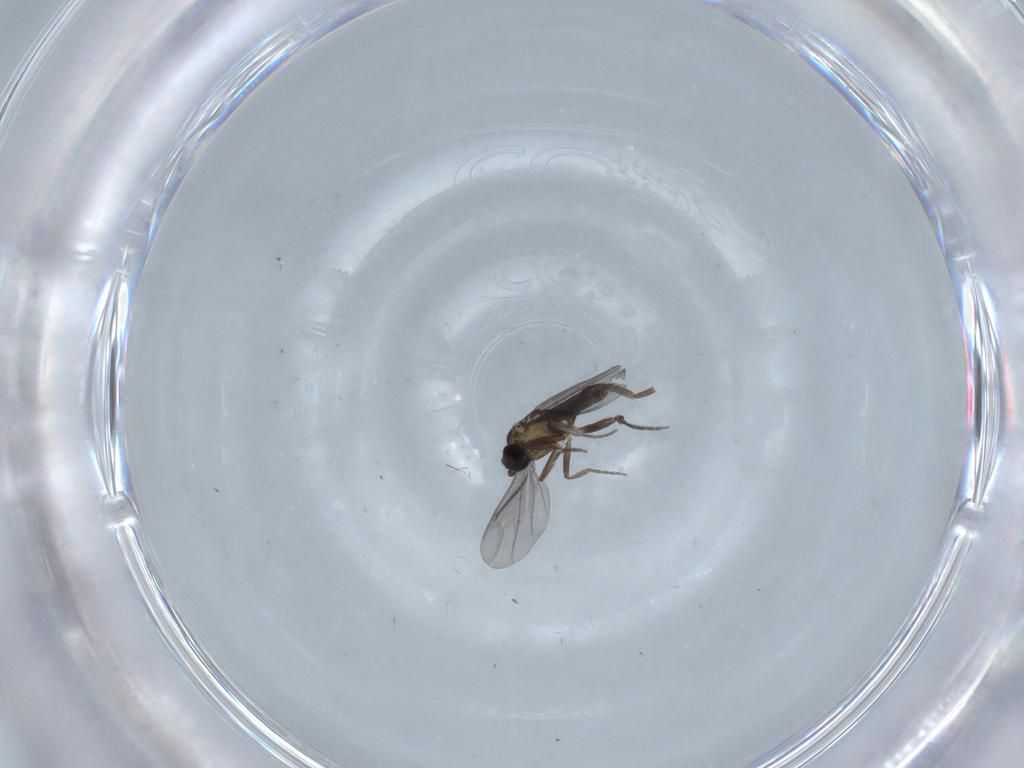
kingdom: Animalia
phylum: Arthropoda
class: Insecta
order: Diptera
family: Chironomidae
